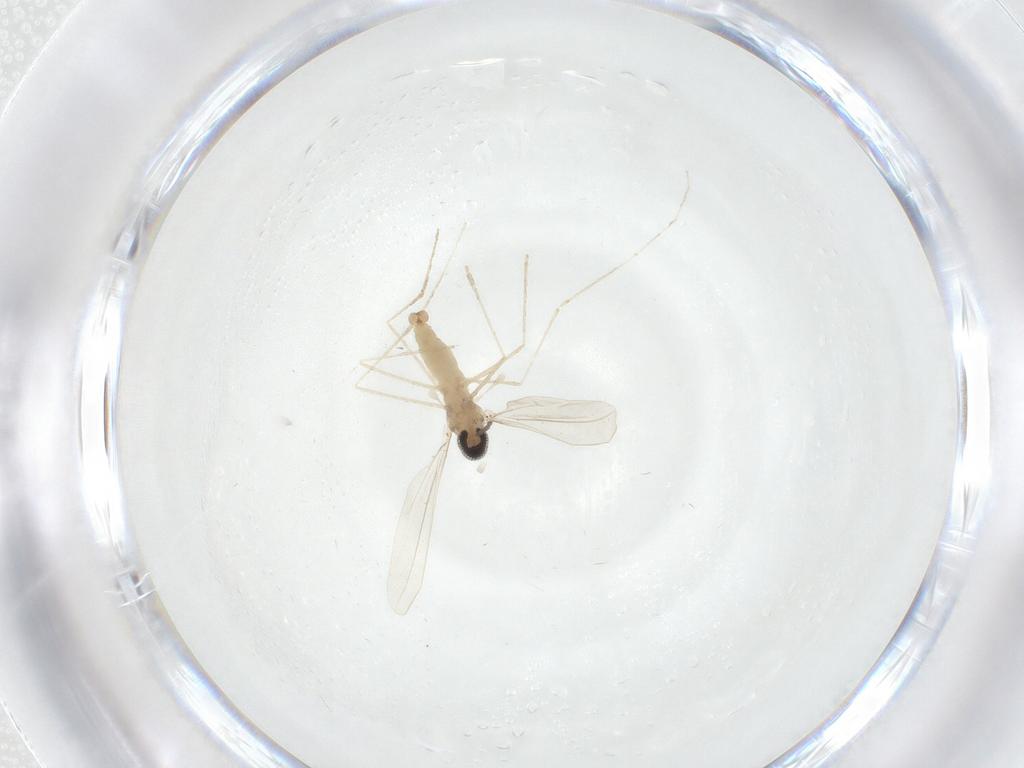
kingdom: Animalia
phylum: Arthropoda
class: Insecta
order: Diptera
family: Cecidomyiidae
